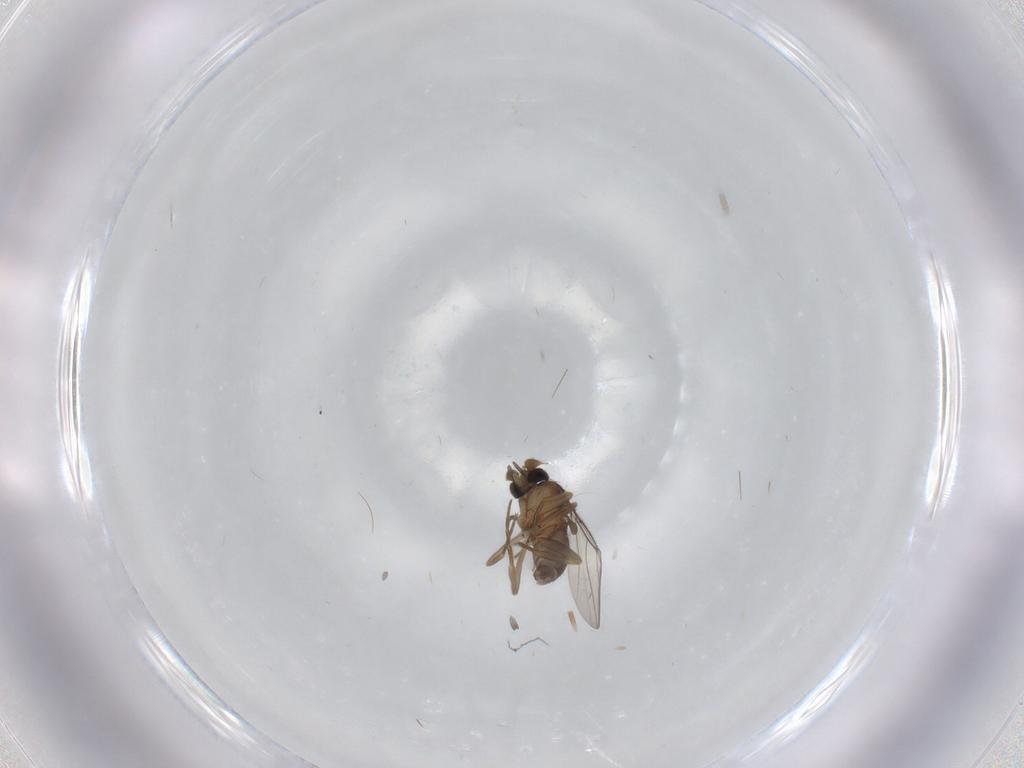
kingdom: Animalia
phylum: Arthropoda
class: Insecta
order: Diptera
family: Phoridae
